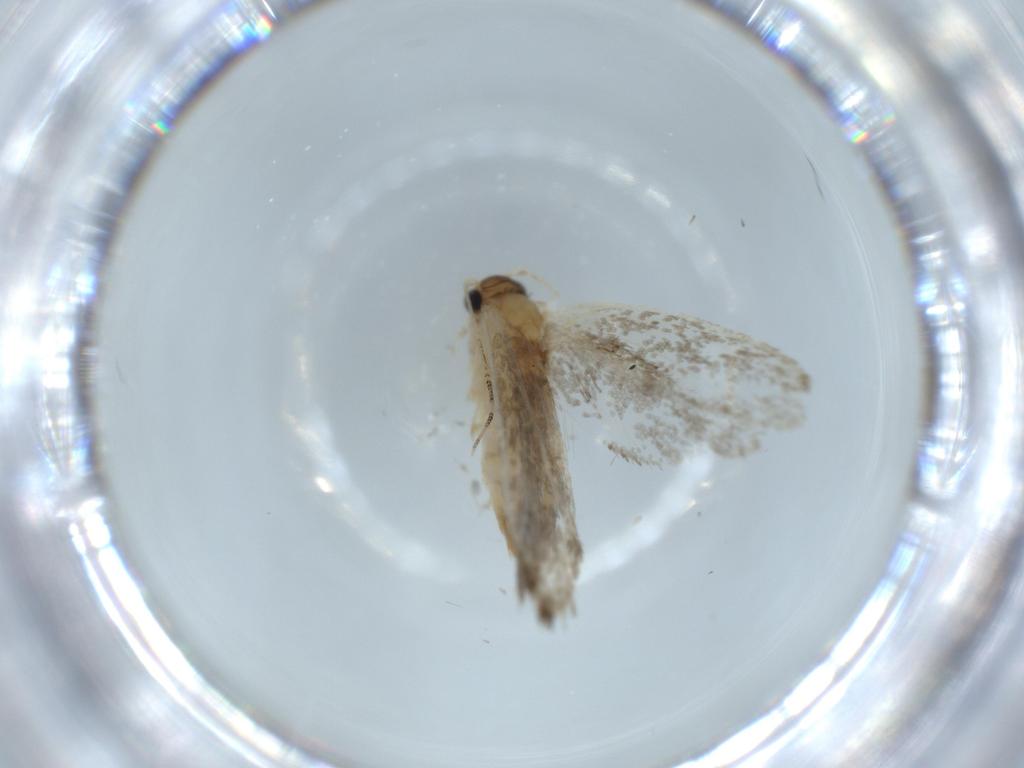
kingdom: Animalia
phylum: Arthropoda
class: Insecta
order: Lepidoptera
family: Tineidae
